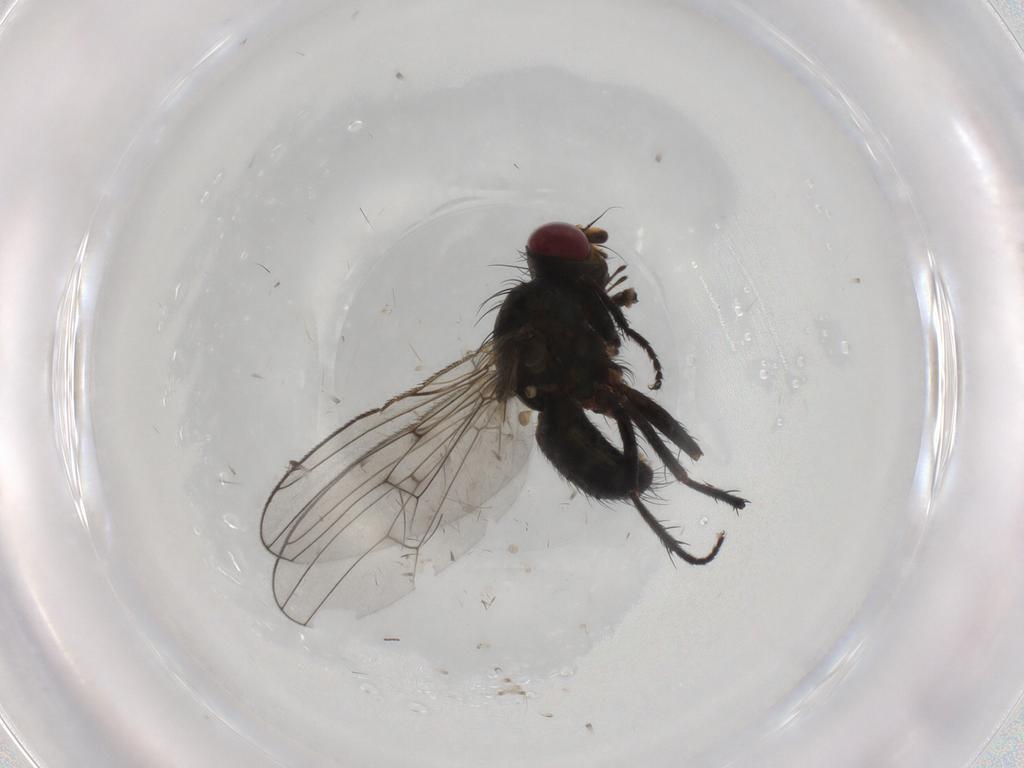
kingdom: Animalia
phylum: Arthropoda
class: Insecta
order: Diptera
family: Muscidae
